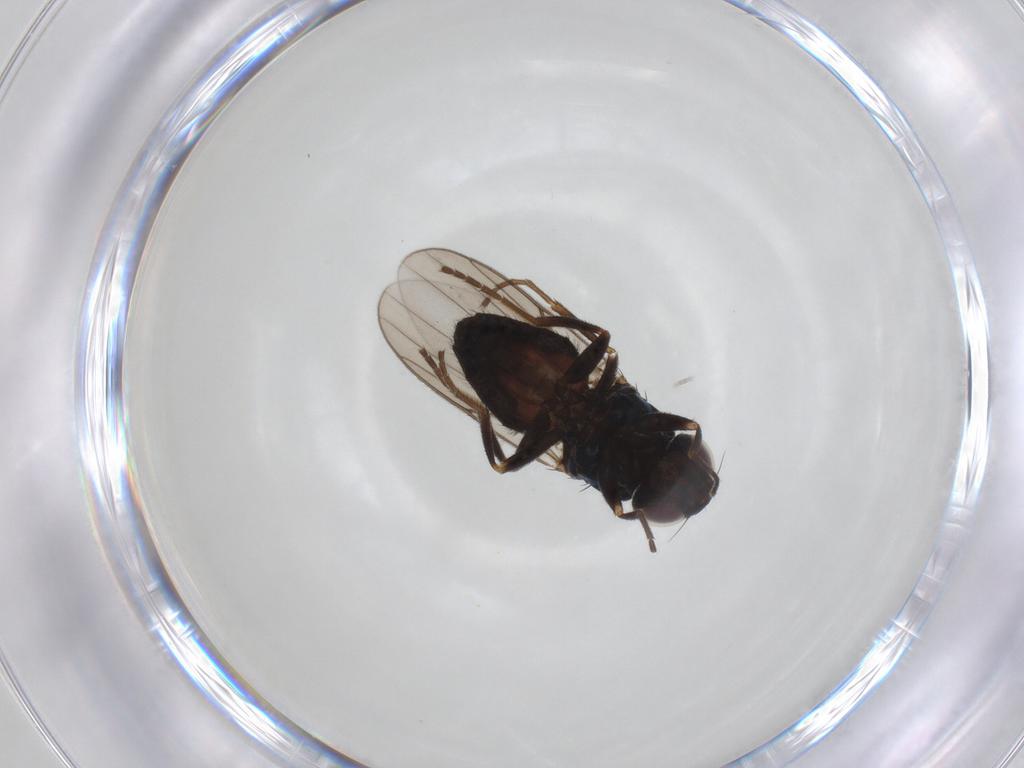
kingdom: Animalia
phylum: Arthropoda
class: Insecta
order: Diptera
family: Chloropidae
